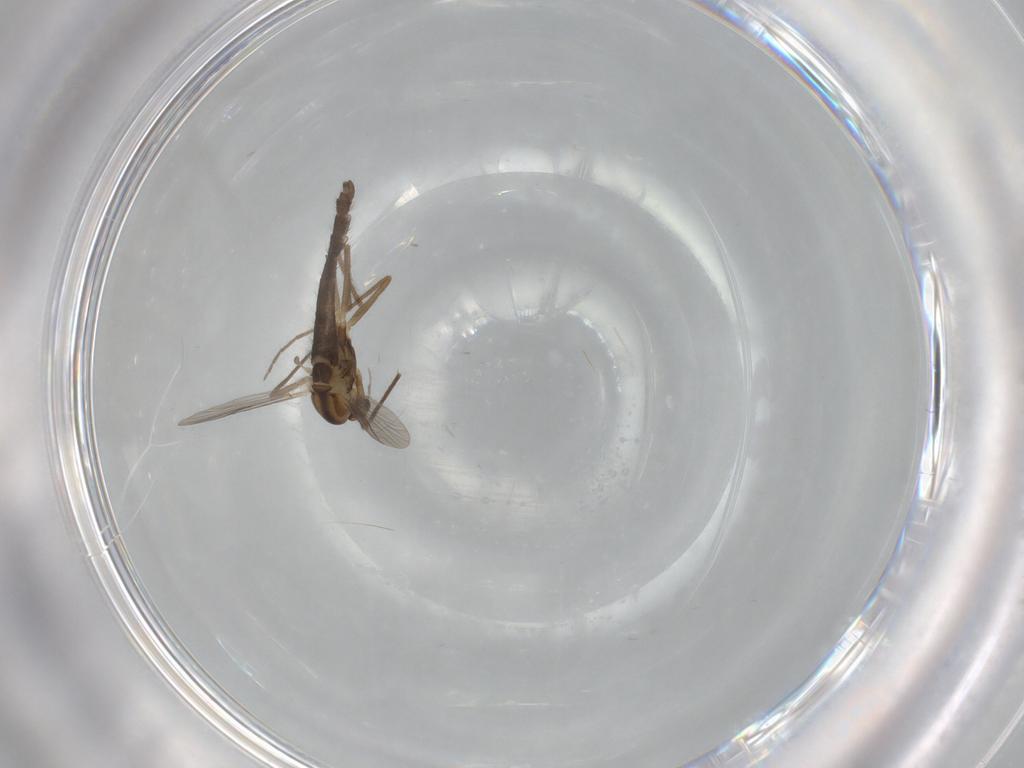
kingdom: Animalia
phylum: Arthropoda
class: Insecta
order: Diptera
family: Chironomidae
